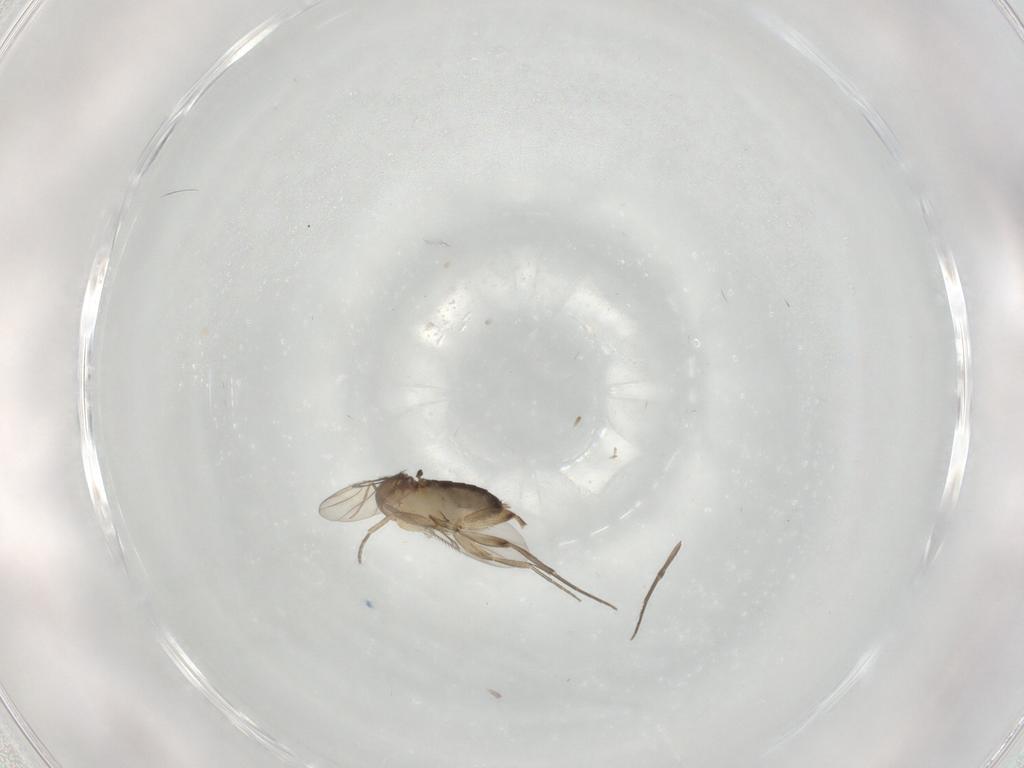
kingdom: Animalia
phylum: Arthropoda
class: Insecta
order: Diptera
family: Phoridae
